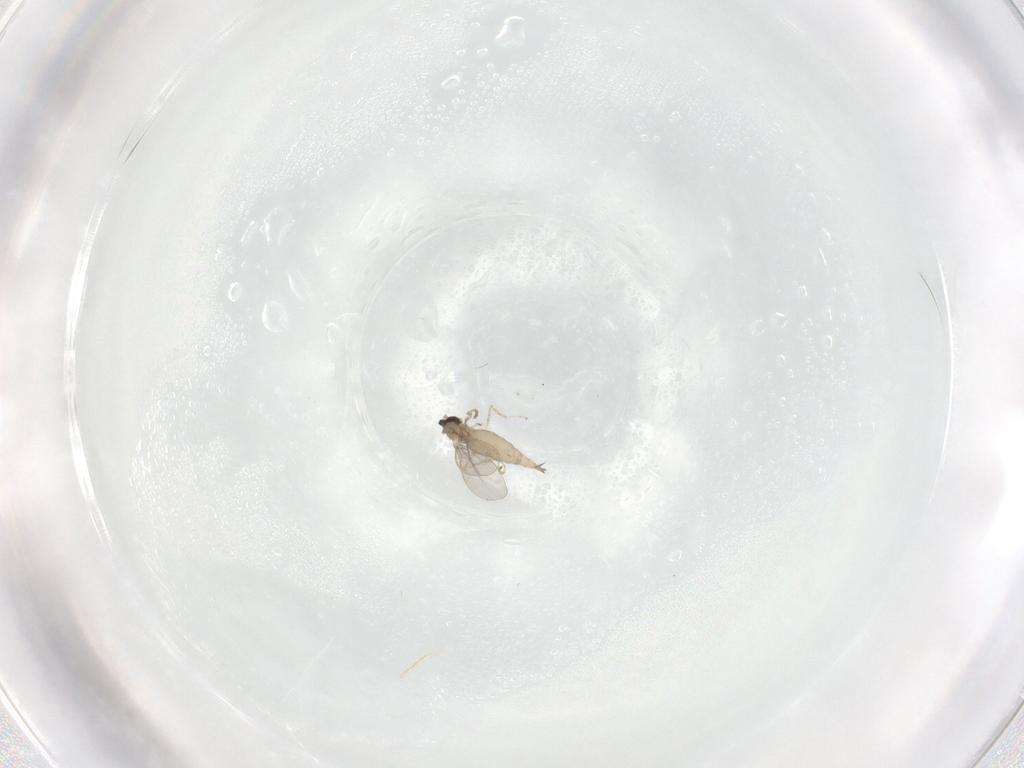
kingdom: Animalia
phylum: Arthropoda
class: Insecta
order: Diptera
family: Cecidomyiidae
